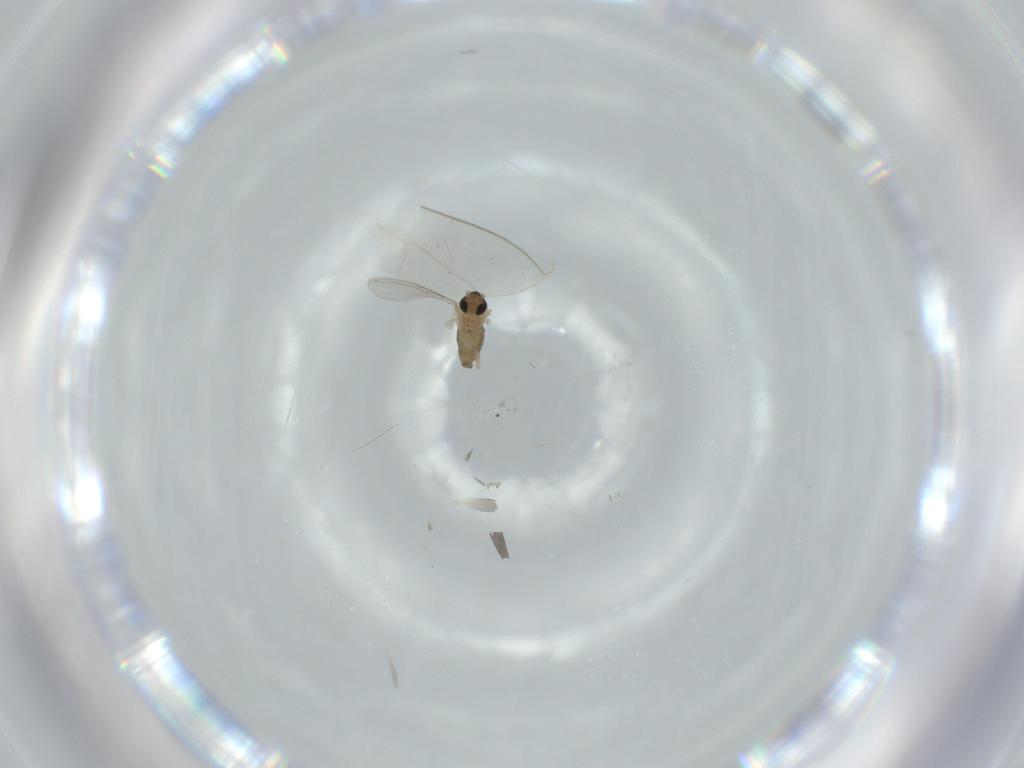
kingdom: Animalia
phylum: Arthropoda
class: Insecta
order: Diptera
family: Cecidomyiidae
